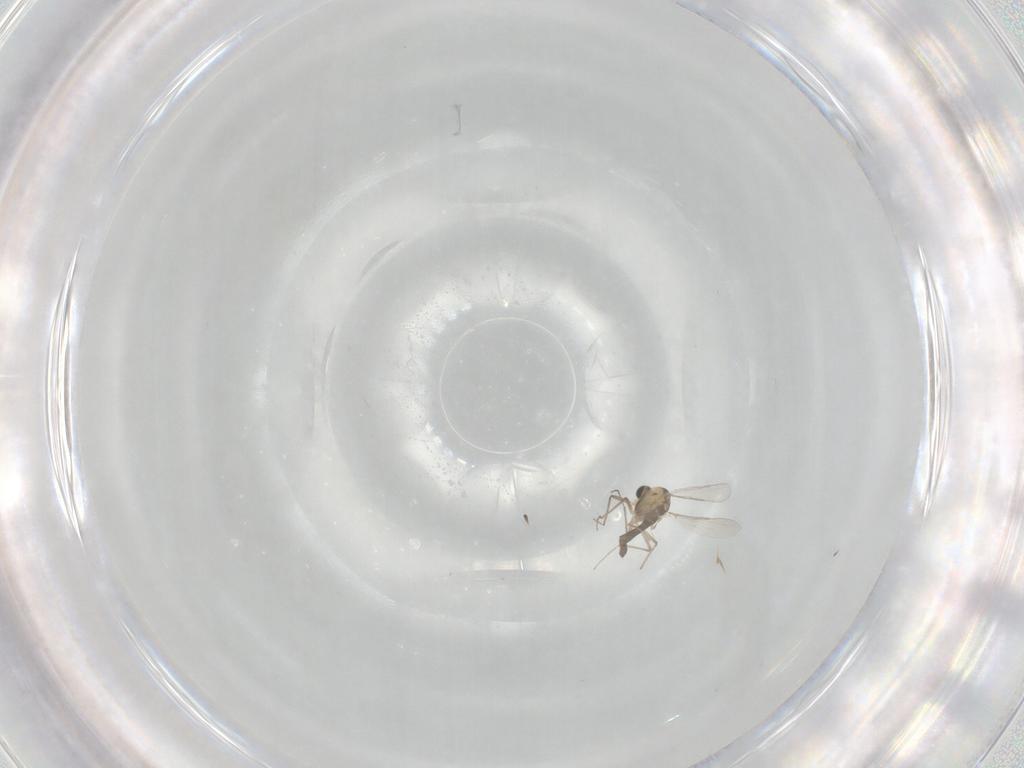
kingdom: Animalia
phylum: Arthropoda
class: Insecta
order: Diptera
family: Chironomidae
